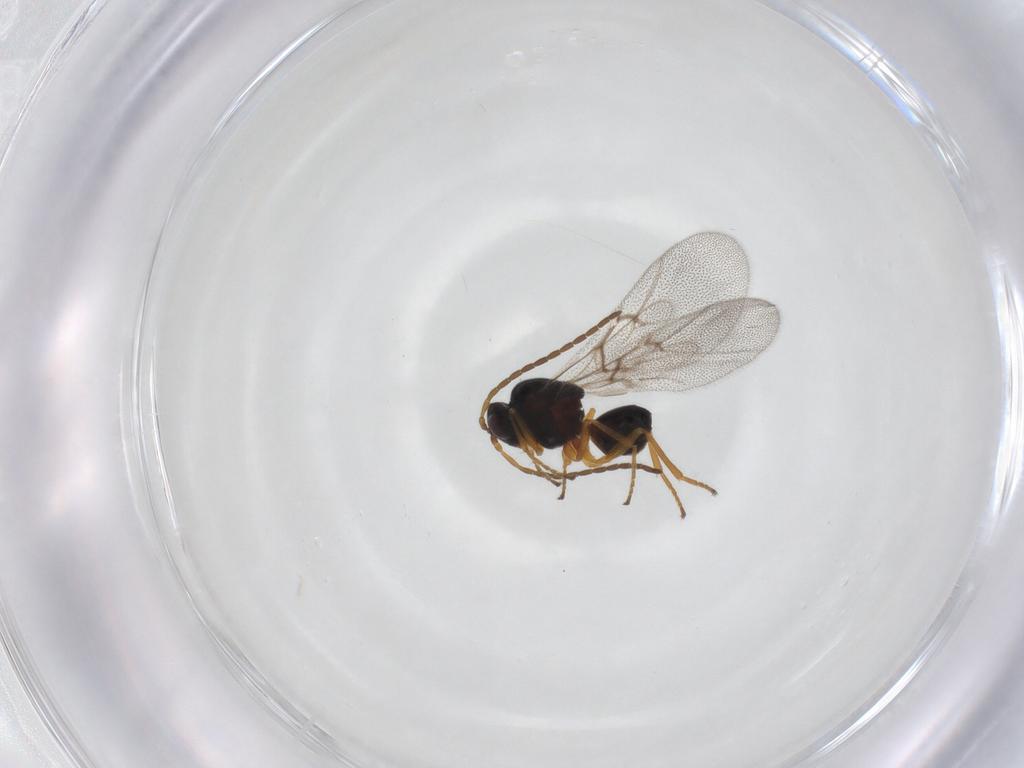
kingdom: Animalia
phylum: Arthropoda
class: Insecta
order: Hymenoptera
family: Cynipidae
